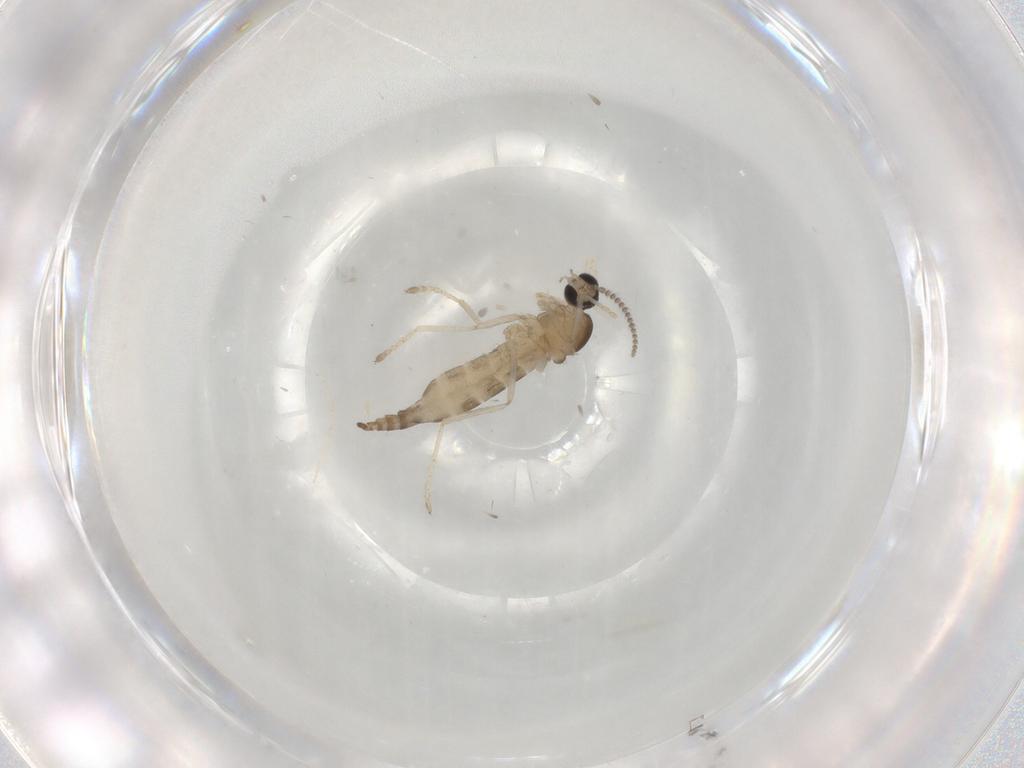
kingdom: Animalia
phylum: Arthropoda
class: Insecta
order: Diptera
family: Chironomidae
